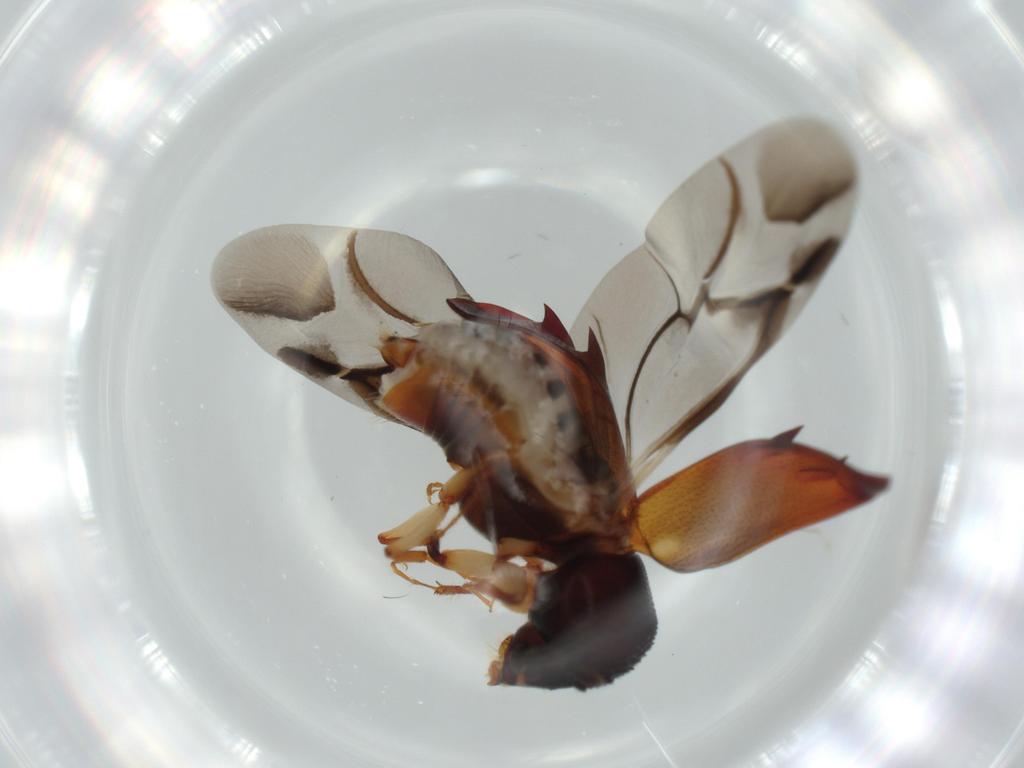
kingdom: Animalia
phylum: Arthropoda
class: Insecta
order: Coleoptera
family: Bostrichidae
